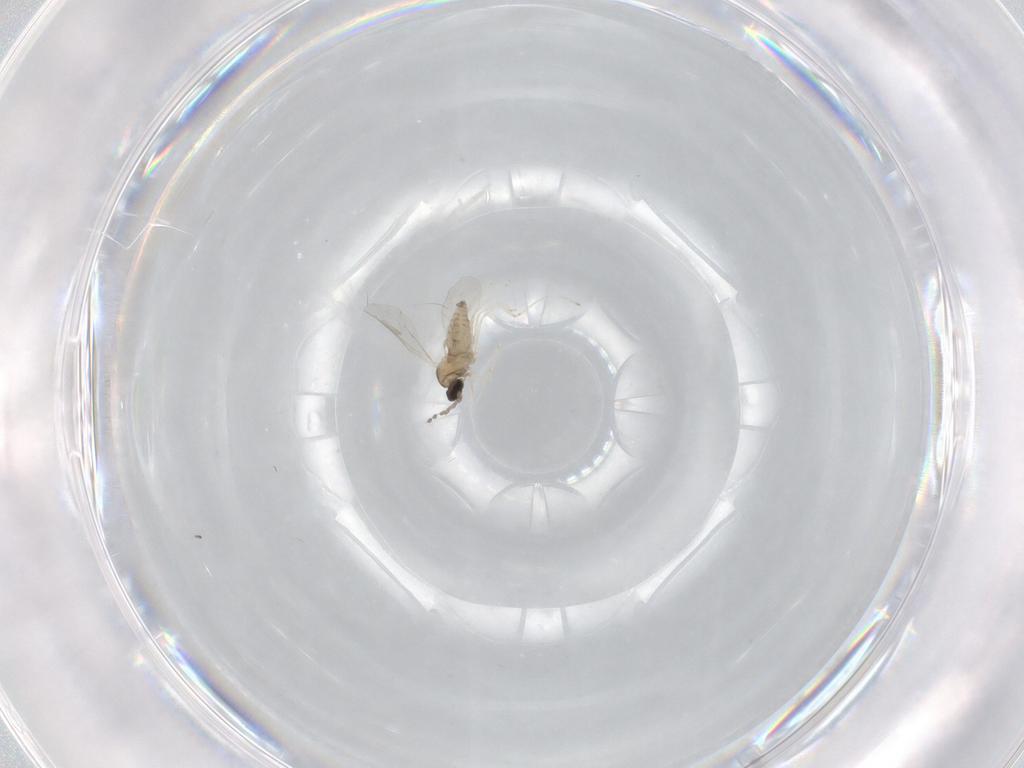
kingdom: Animalia
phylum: Arthropoda
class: Insecta
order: Diptera
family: Cecidomyiidae
